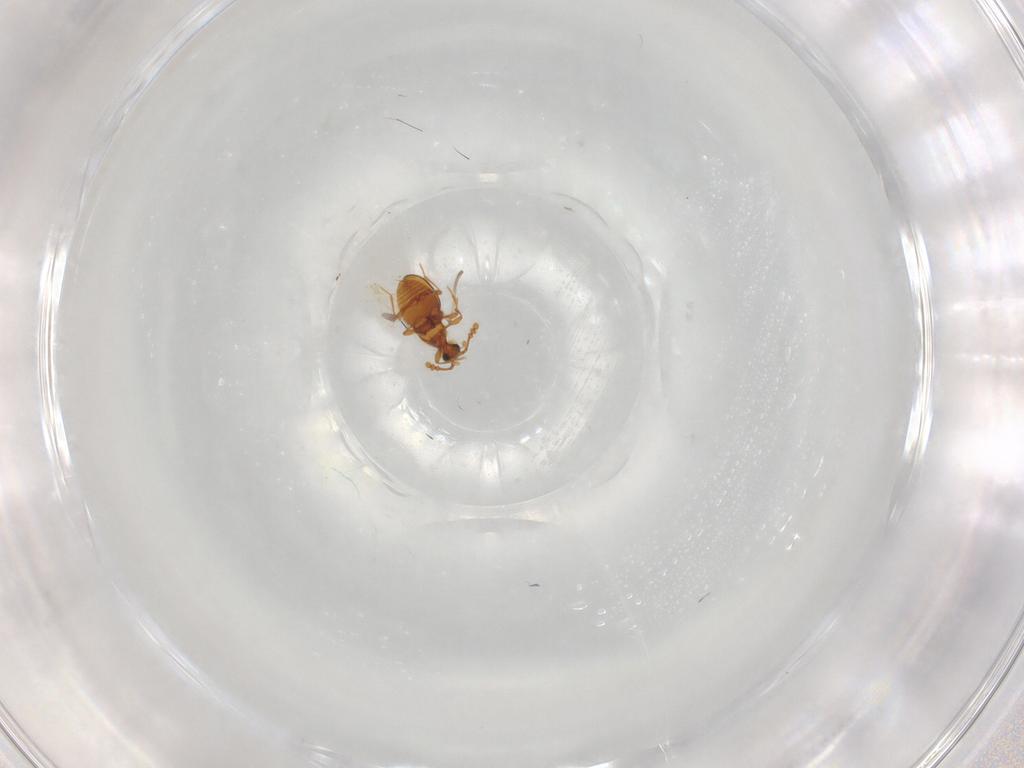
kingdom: Animalia
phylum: Arthropoda
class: Insecta
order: Coleoptera
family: Staphylinidae
